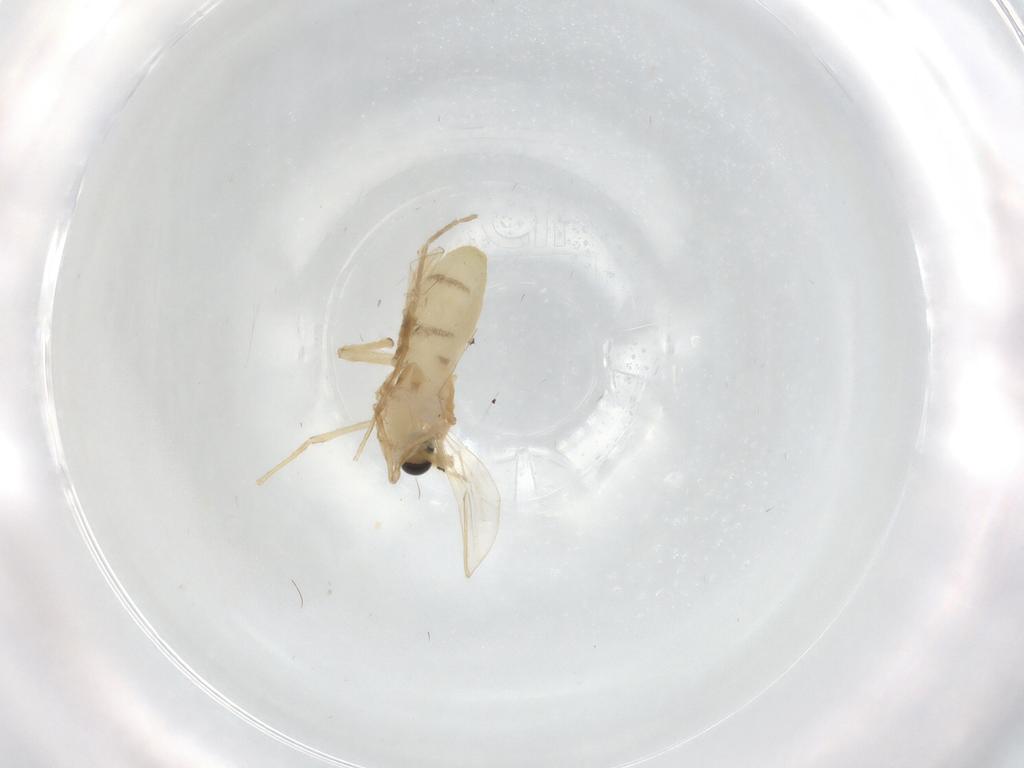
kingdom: Animalia
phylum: Arthropoda
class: Insecta
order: Diptera
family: Chironomidae
